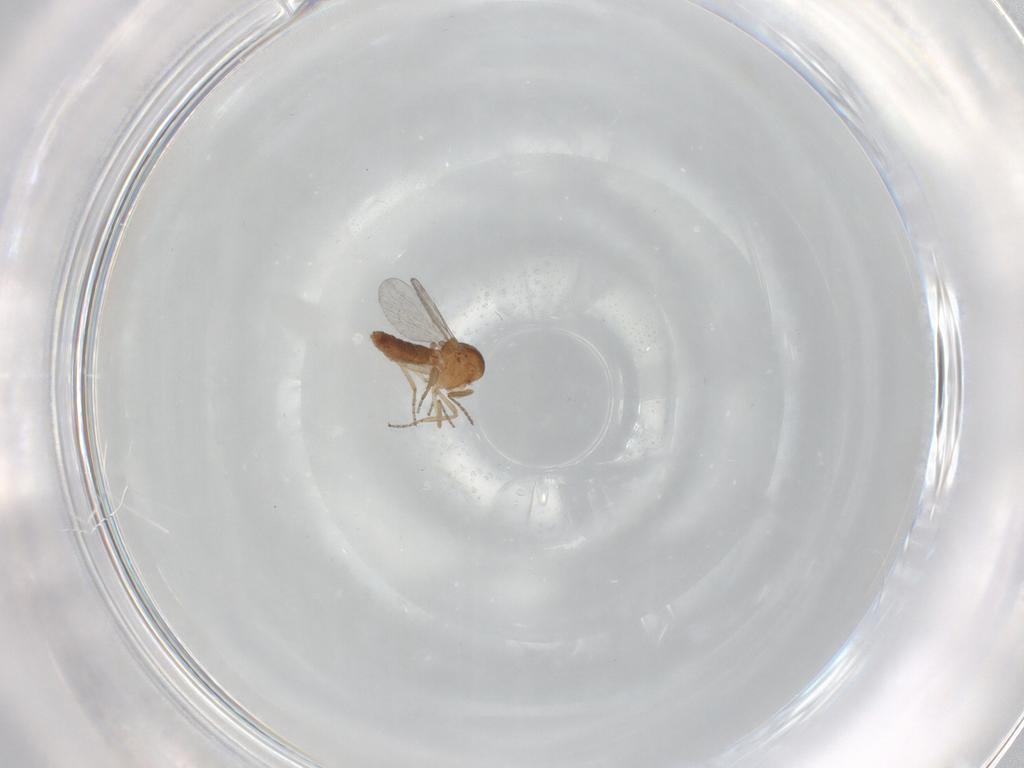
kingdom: Animalia
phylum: Arthropoda
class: Insecta
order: Diptera
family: Ceratopogonidae
